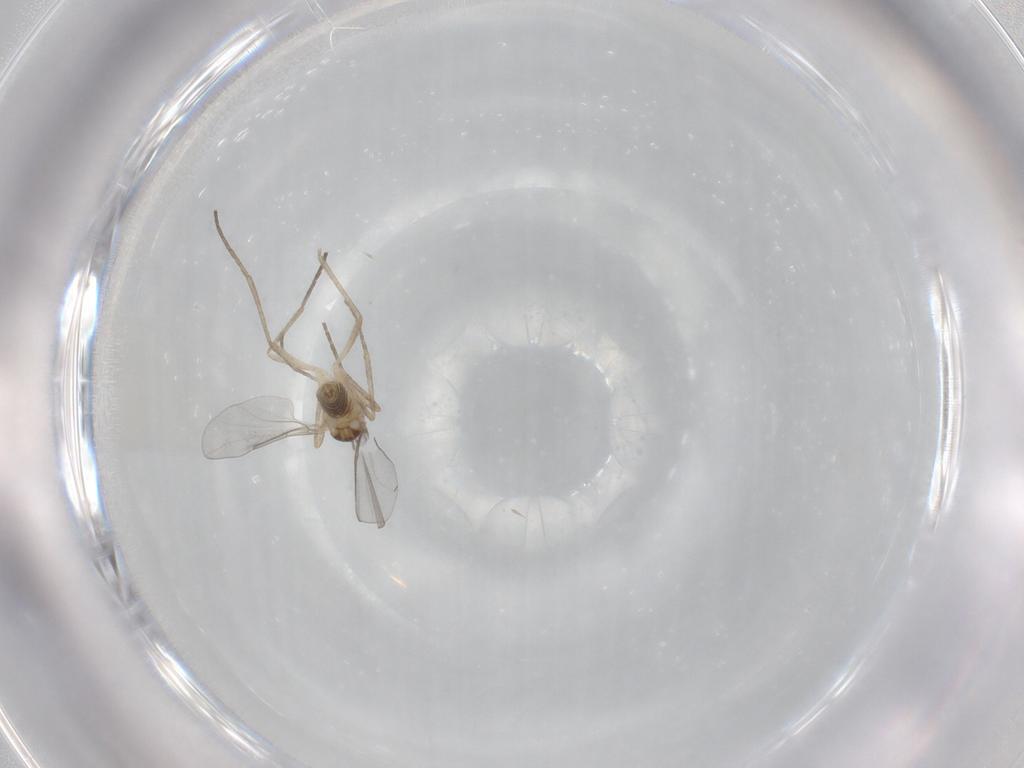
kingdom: Animalia
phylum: Arthropoda
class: Insecta
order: Diptera
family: Cecidomyiidae
